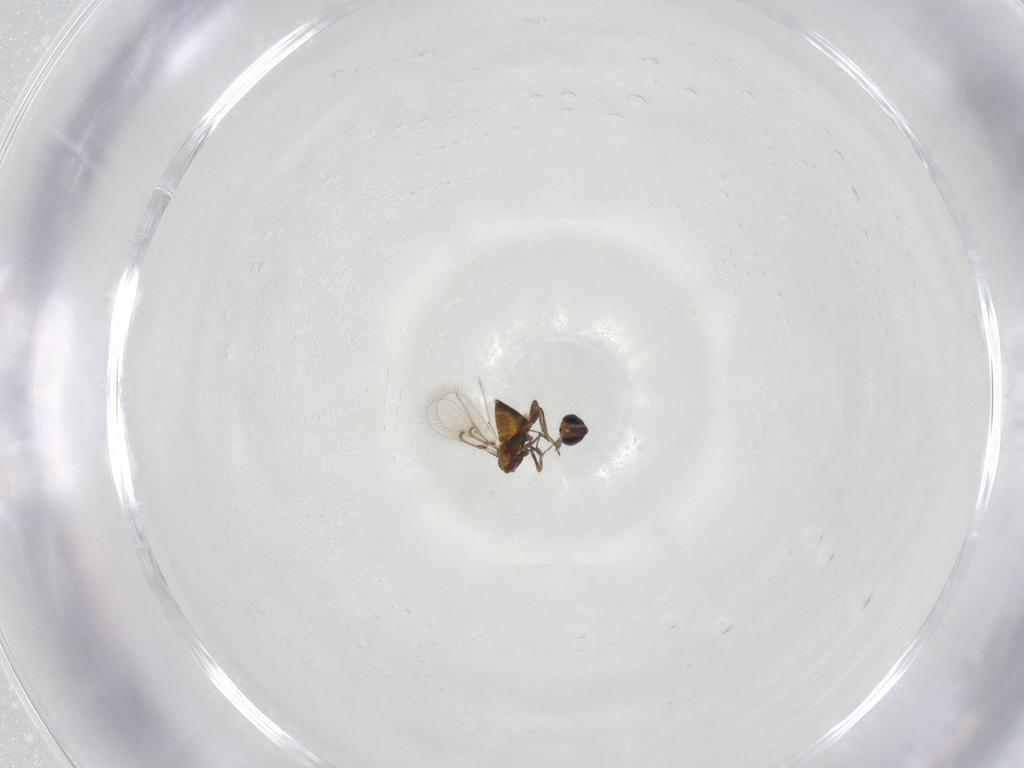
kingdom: Animalia
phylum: Arthropoda
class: Insecta
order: Hymenoptera
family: Trichogrammatidae
